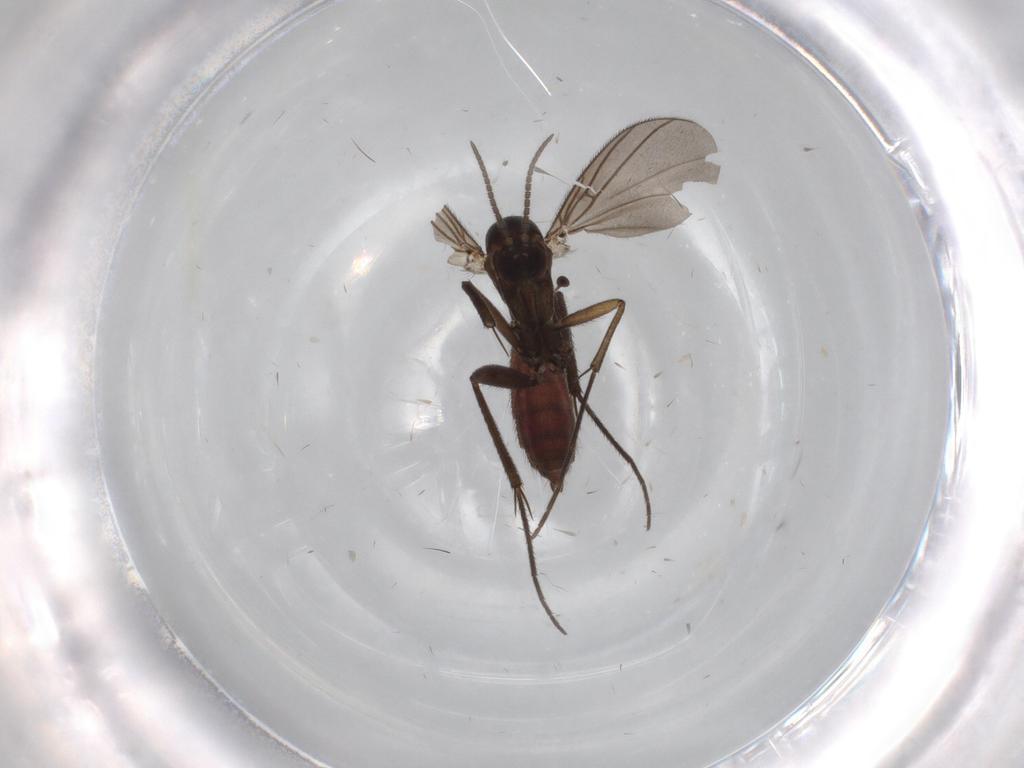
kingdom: Animalia
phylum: Arthropoda
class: Insecta
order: Diptera
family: Mycetophilidae
